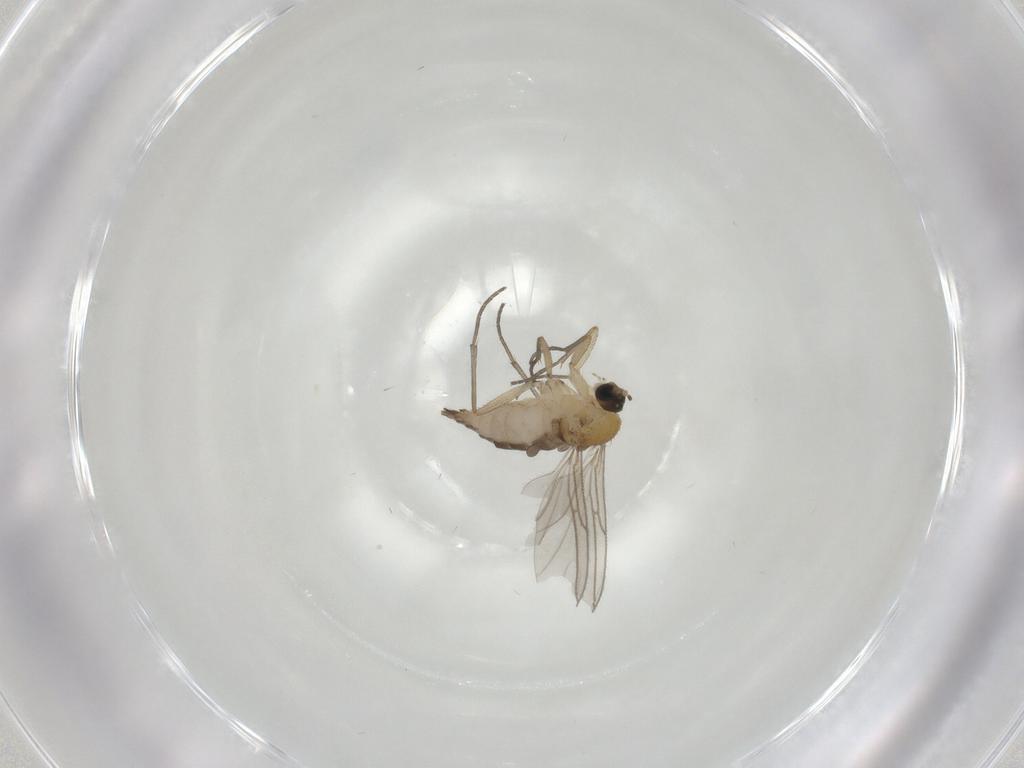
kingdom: Animalia
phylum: Arthropoda
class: Insecta
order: Diptera
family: Sciaridae
